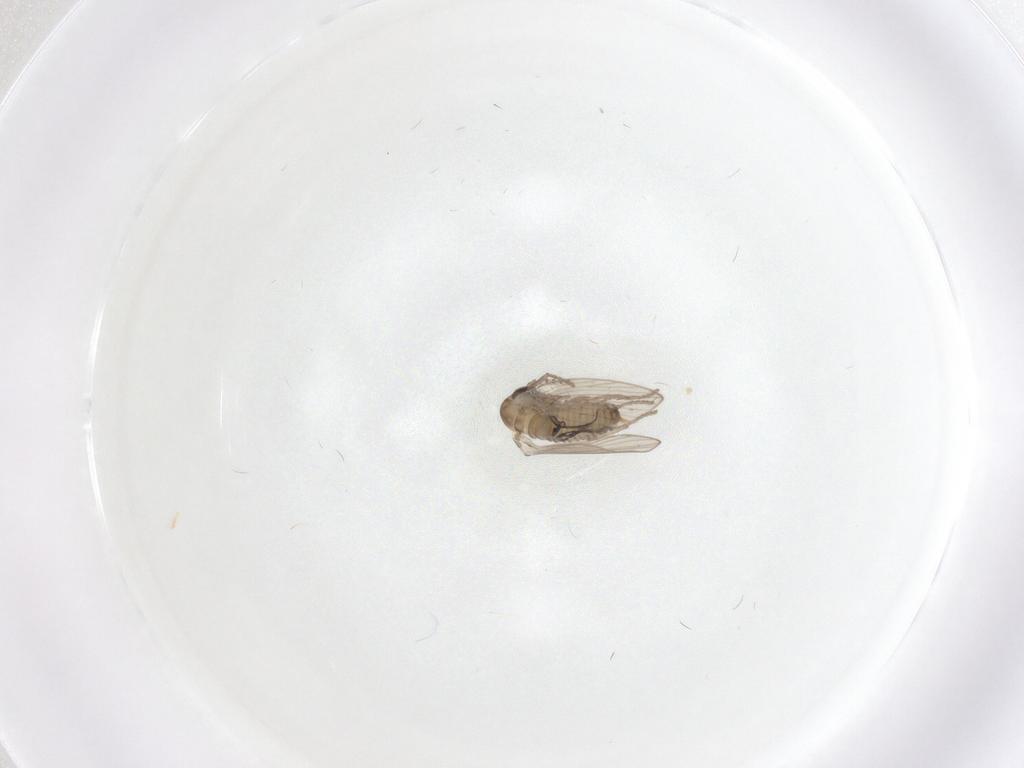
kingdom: Animalia
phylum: Arthropoda
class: Insecta
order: Diptera
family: Psychodidae
